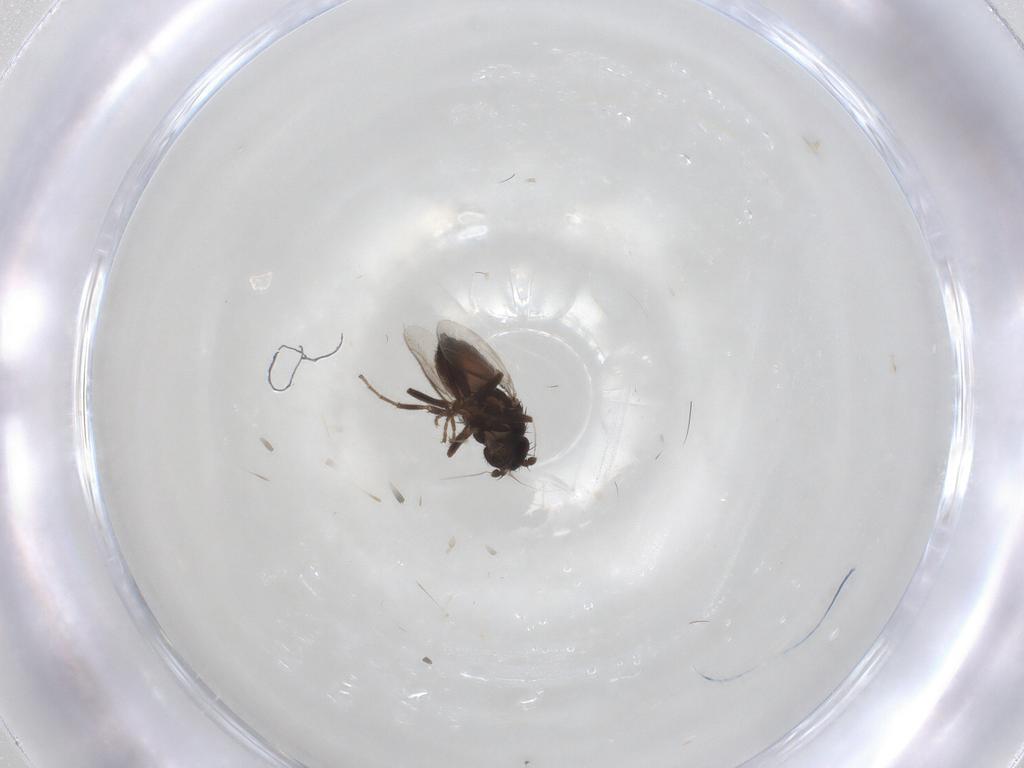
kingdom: Animalia
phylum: Arthropoda
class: Insecta
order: Diptera
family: Sphaeroceridae
